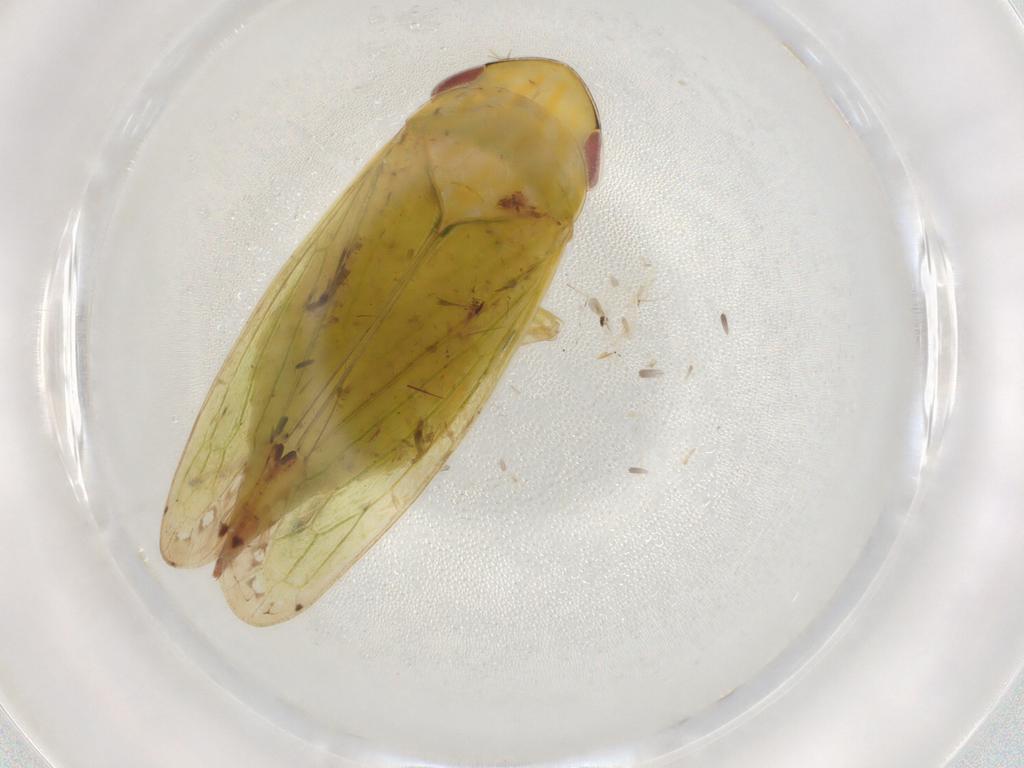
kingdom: Animalia
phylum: Arthropoda
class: Insecta
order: Hemiptera
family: Cicadellidae
